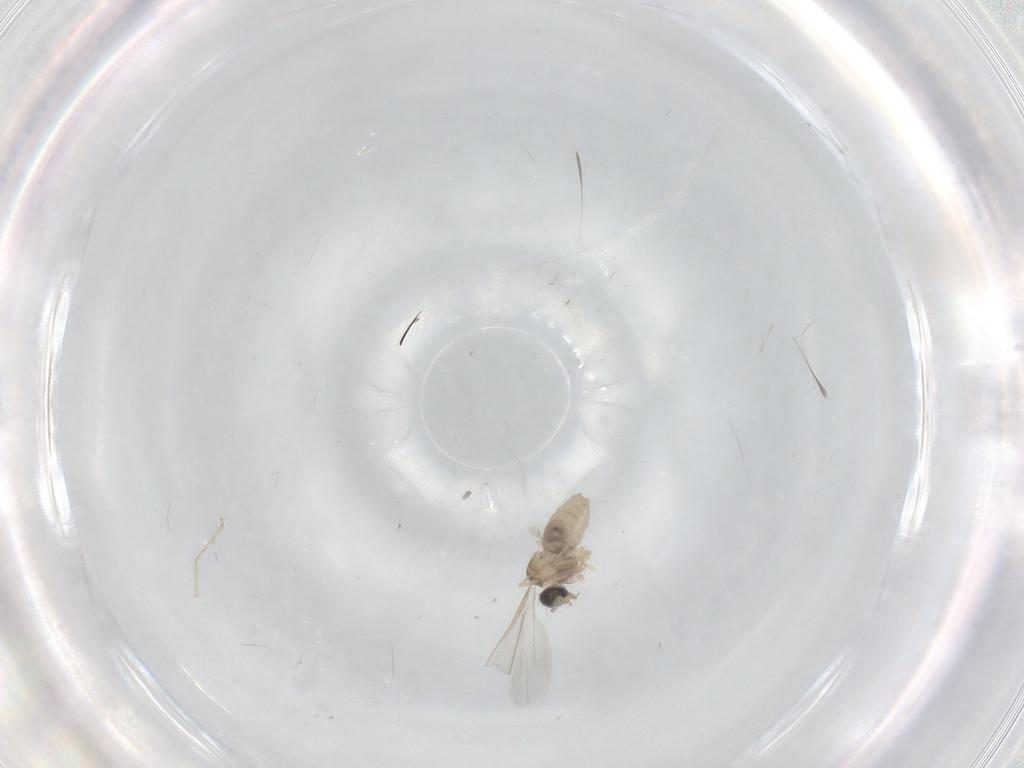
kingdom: Animalia
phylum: Arthropoda
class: Insecta
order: Diptera
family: Cecidomyiidae
